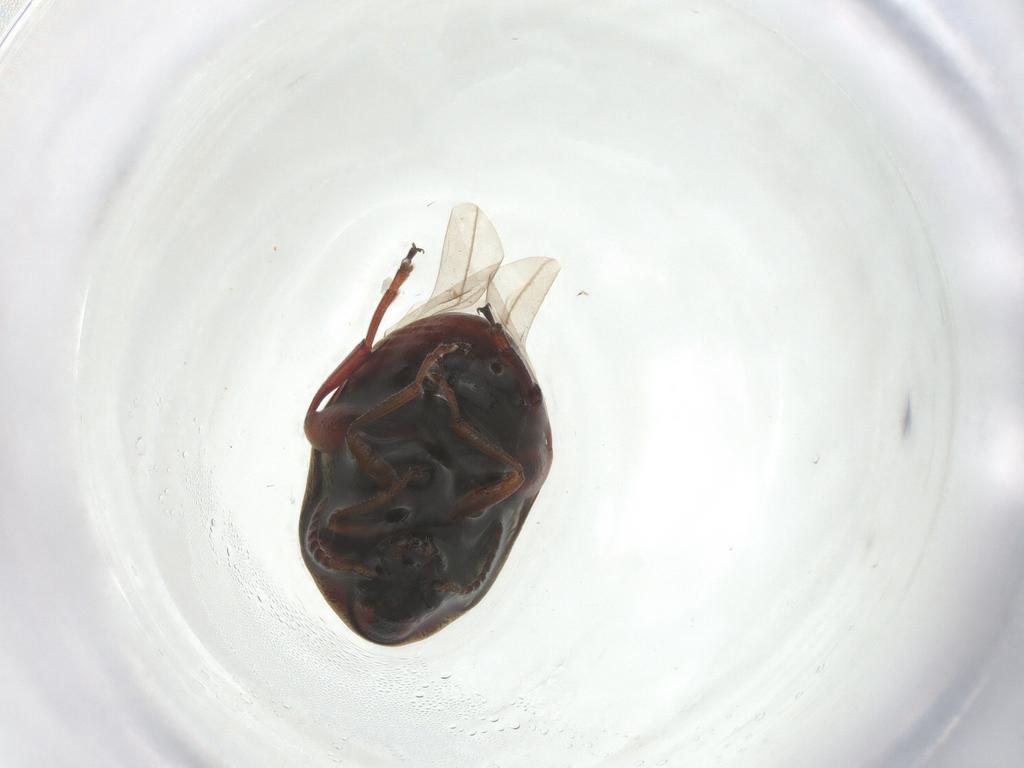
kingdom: Animalia
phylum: Arthropoda
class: Insecta
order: Coleoptera
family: Chrysomelidae
